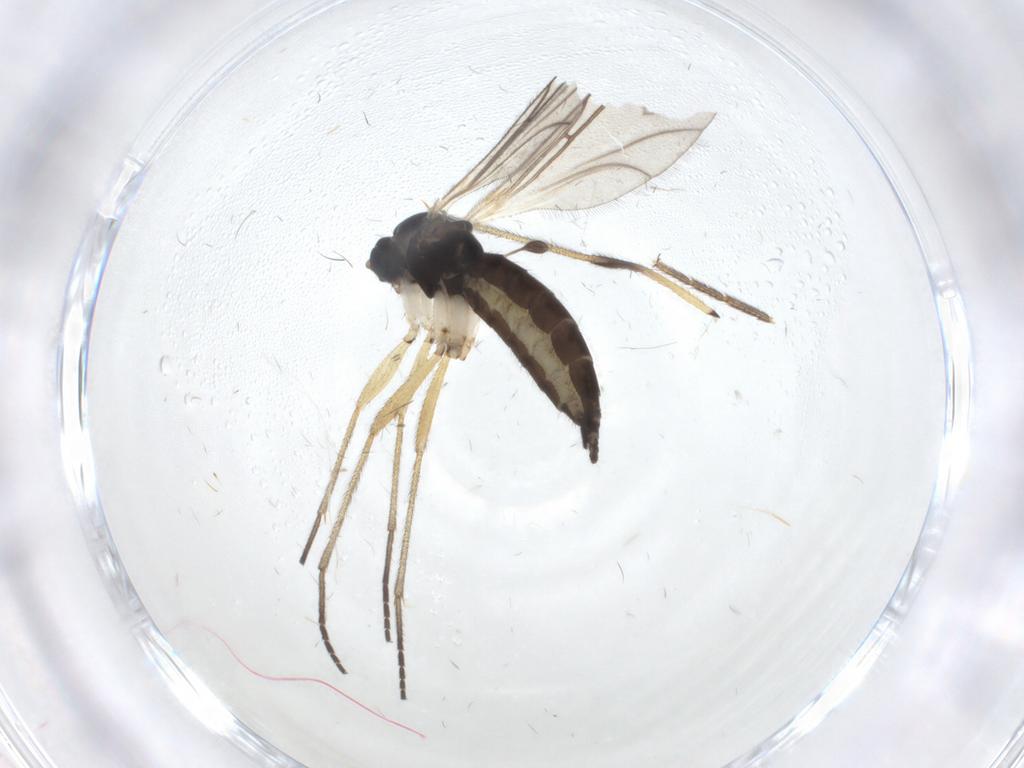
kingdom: Animalia
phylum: Arthropoda
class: Insecta
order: Diptera
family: Sciaridae
